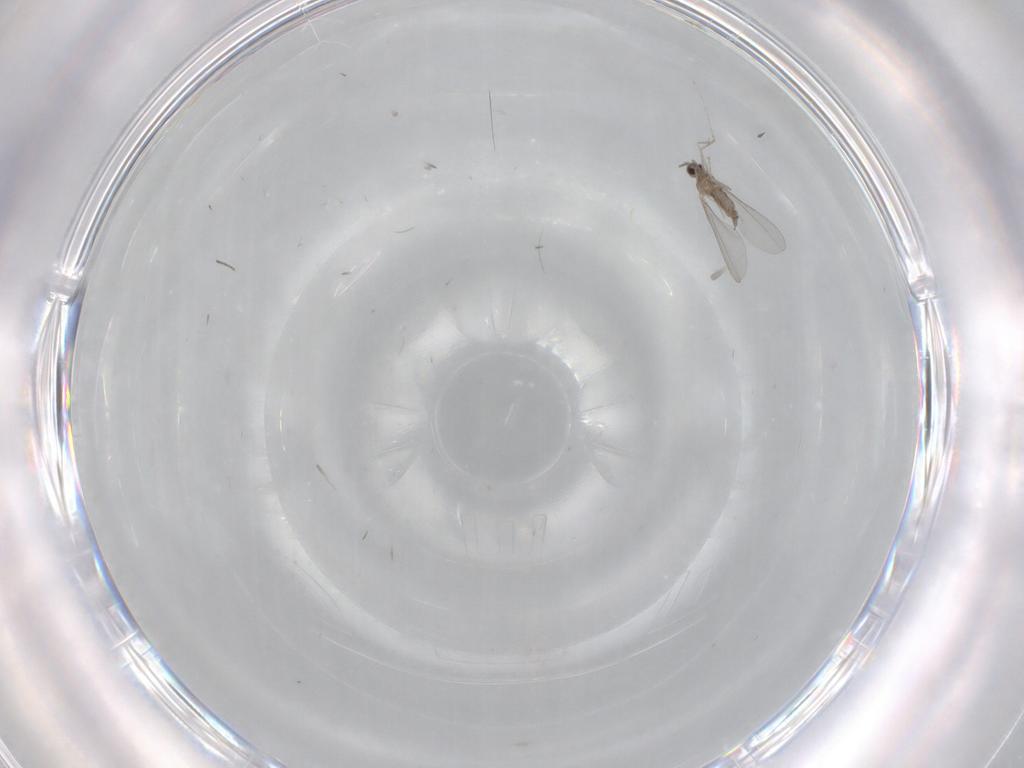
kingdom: Animalia
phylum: Arthropoda
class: Insecta
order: Diptera
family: Cecidomyiidae
